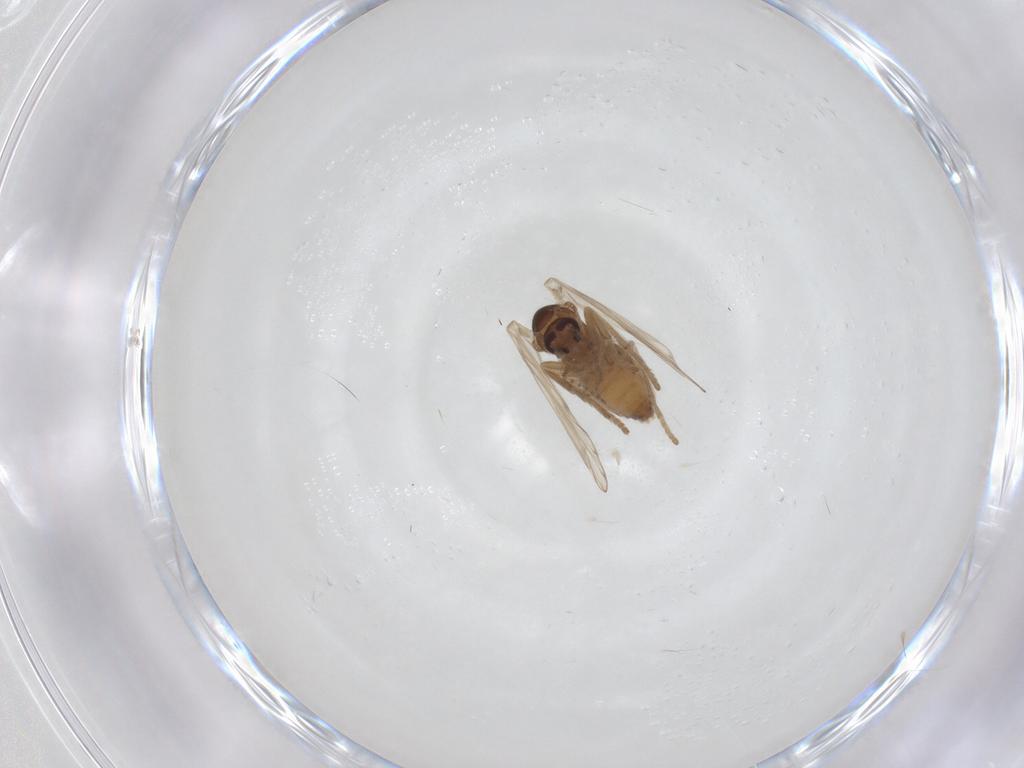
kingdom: Animalia
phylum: Arthropoda
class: Insecta
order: Diptera
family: Psychodidae
